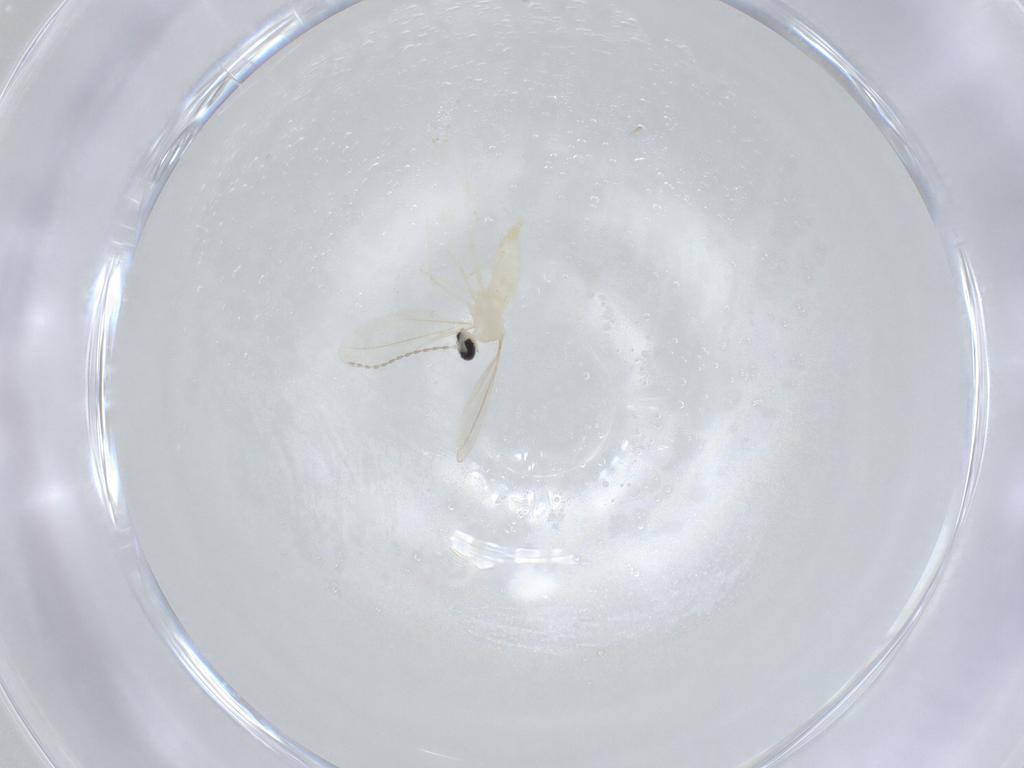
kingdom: Animalia
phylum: Arthropoda
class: Insecta
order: Diptera
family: Cecidomyiidae
